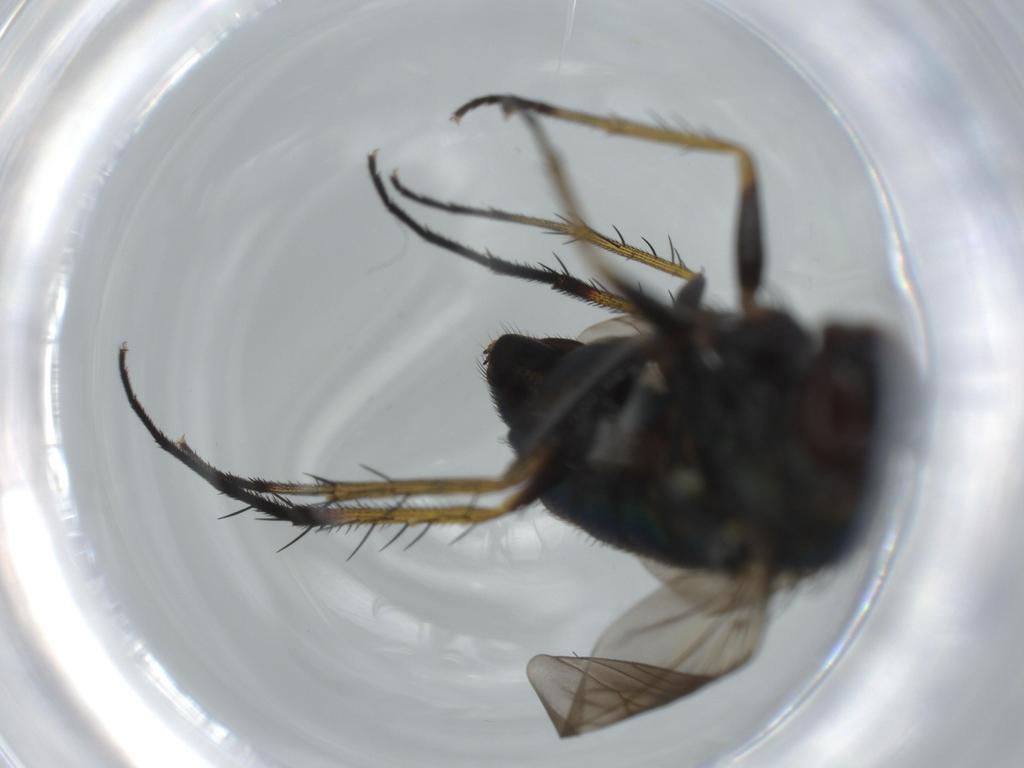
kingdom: Animalia
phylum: Arthropoda
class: Insecta
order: Diptera
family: Dolichopodidae
